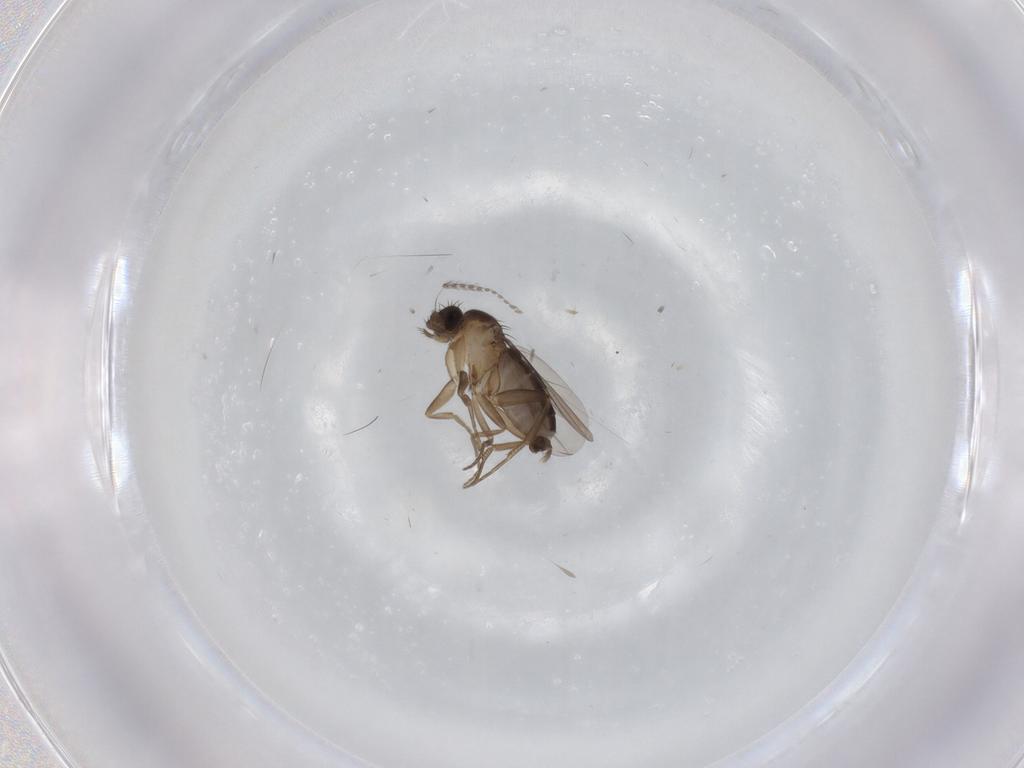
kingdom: Animalia
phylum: Arthropoda
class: Insecta
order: Diptera
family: Phoridae
